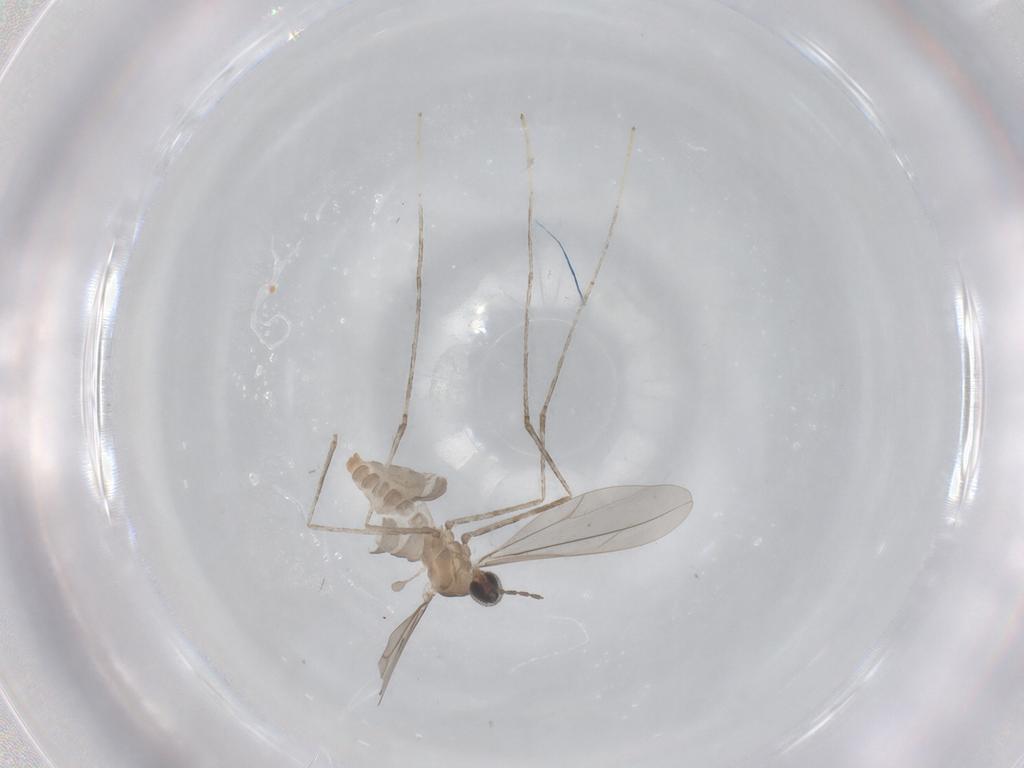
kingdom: Animalia
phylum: Arthropoda
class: Insecta
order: Diptera
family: Cecidomyiidae
